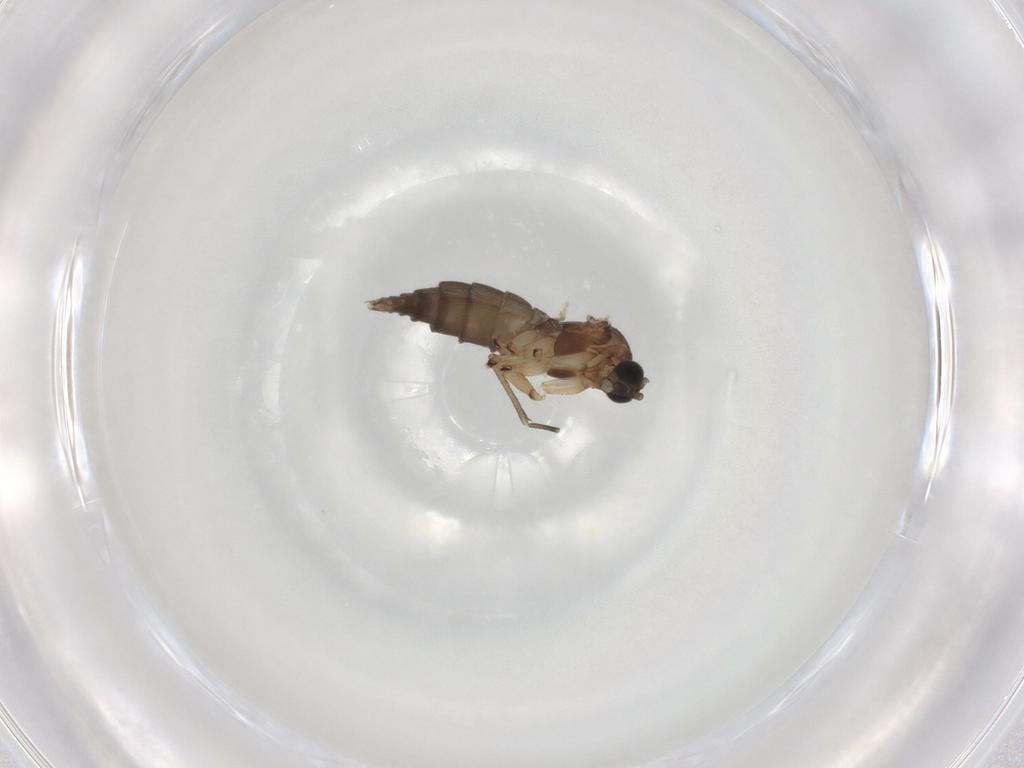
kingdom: Animalia
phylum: Arthropoda
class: Insecta
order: Diptera
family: Sciaridae
